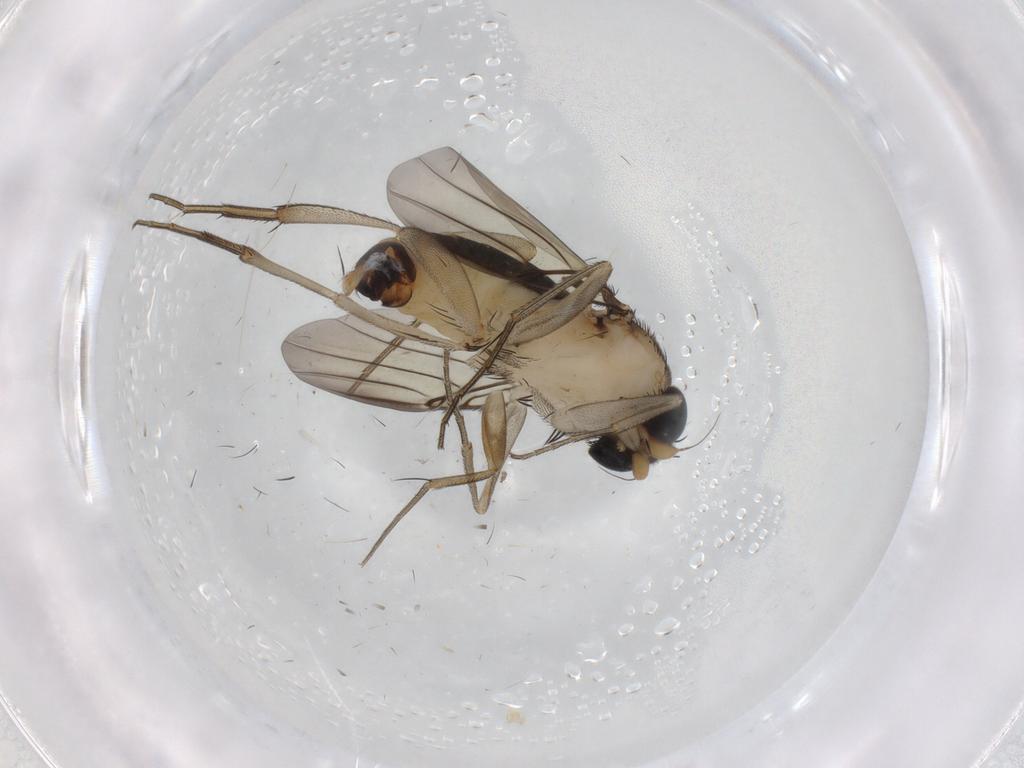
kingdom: Animalia
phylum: Arthropoda
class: Insecta
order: Diptera
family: Phoridae
